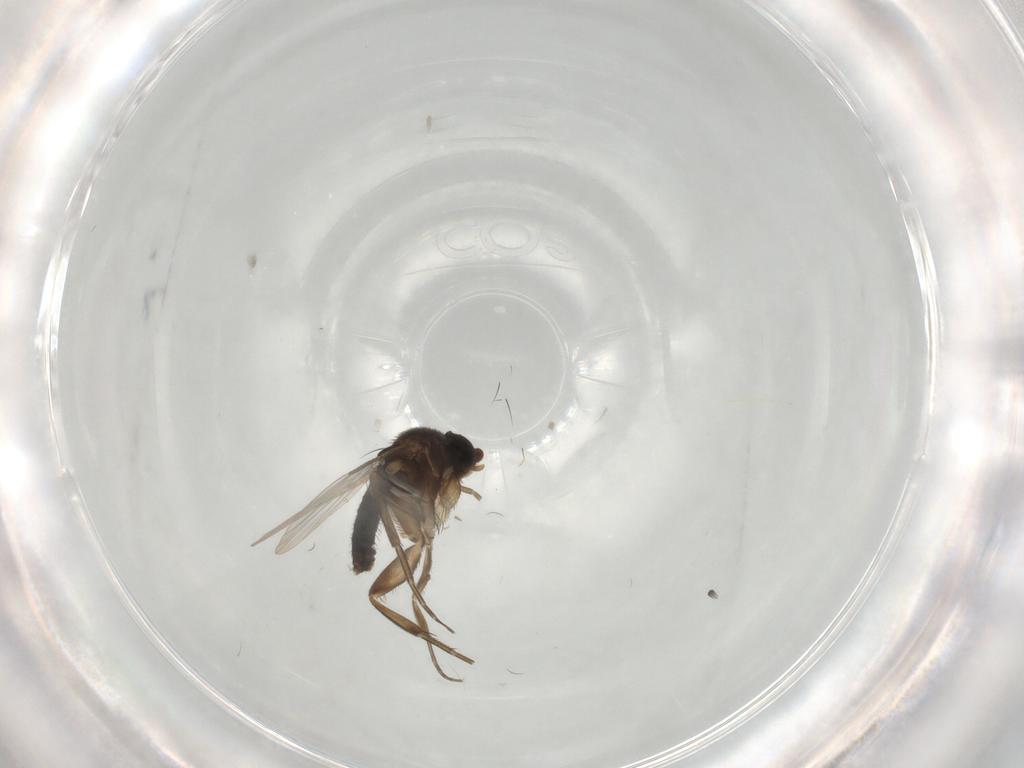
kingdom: Animalia
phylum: Arthropoda
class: Insecta
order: Diptera
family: Phoridae
